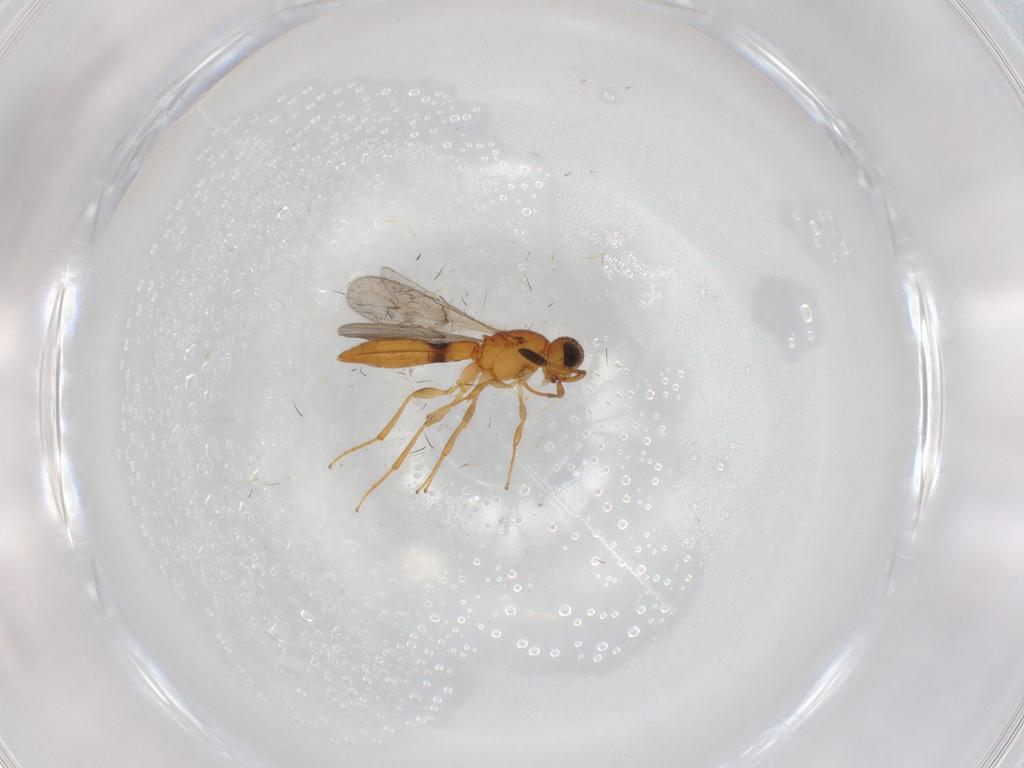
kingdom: Animalia
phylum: Arthropoda
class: Insecta
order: Hymenoptera
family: Scelionidae
